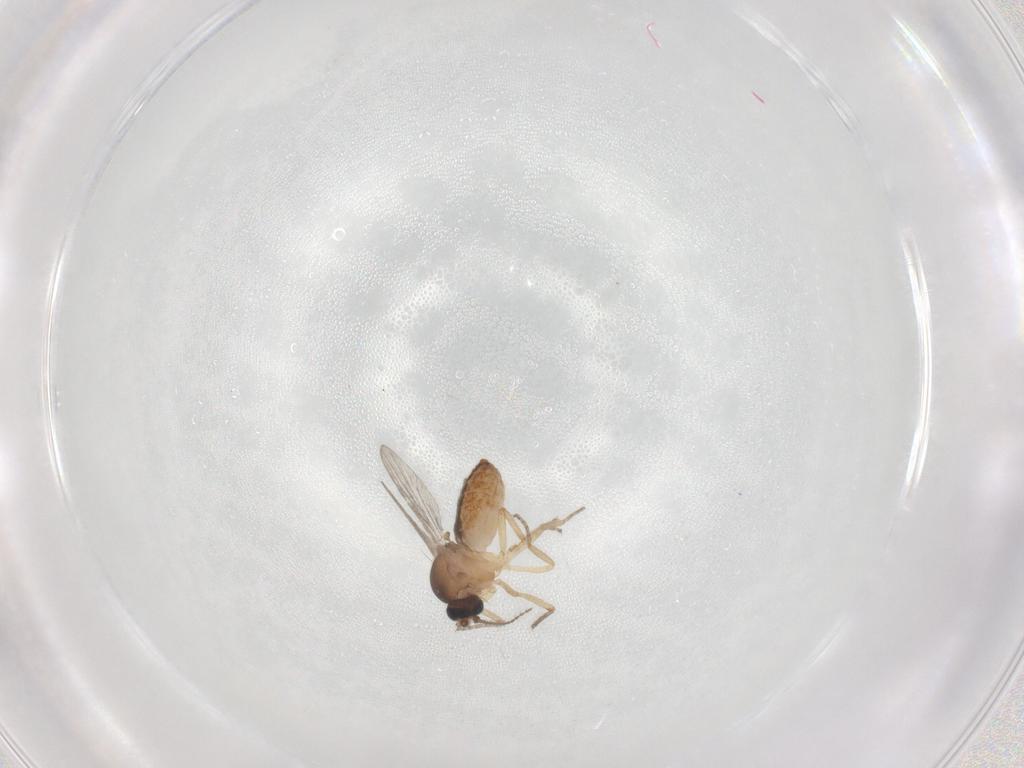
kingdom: Animalia
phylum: Arthropoda
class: Insecta
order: Diptera
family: Ceratopogonidae
